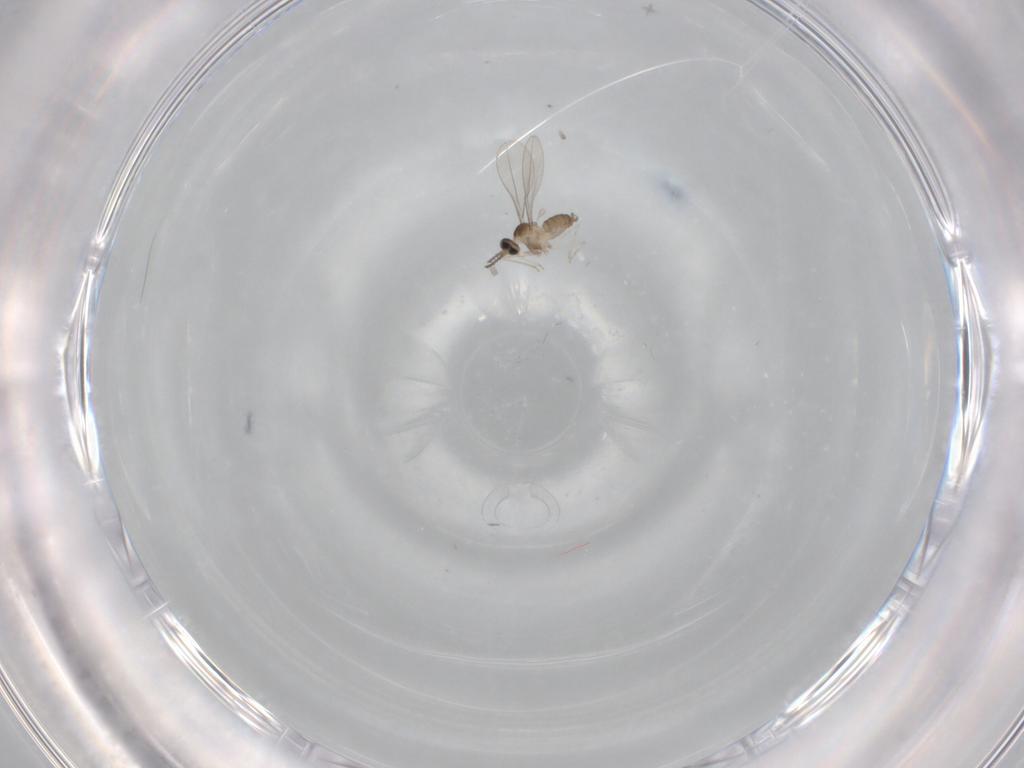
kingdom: Animalia
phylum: Arthropoda
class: Insecta
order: Diptera
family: Cecidomyiidae
